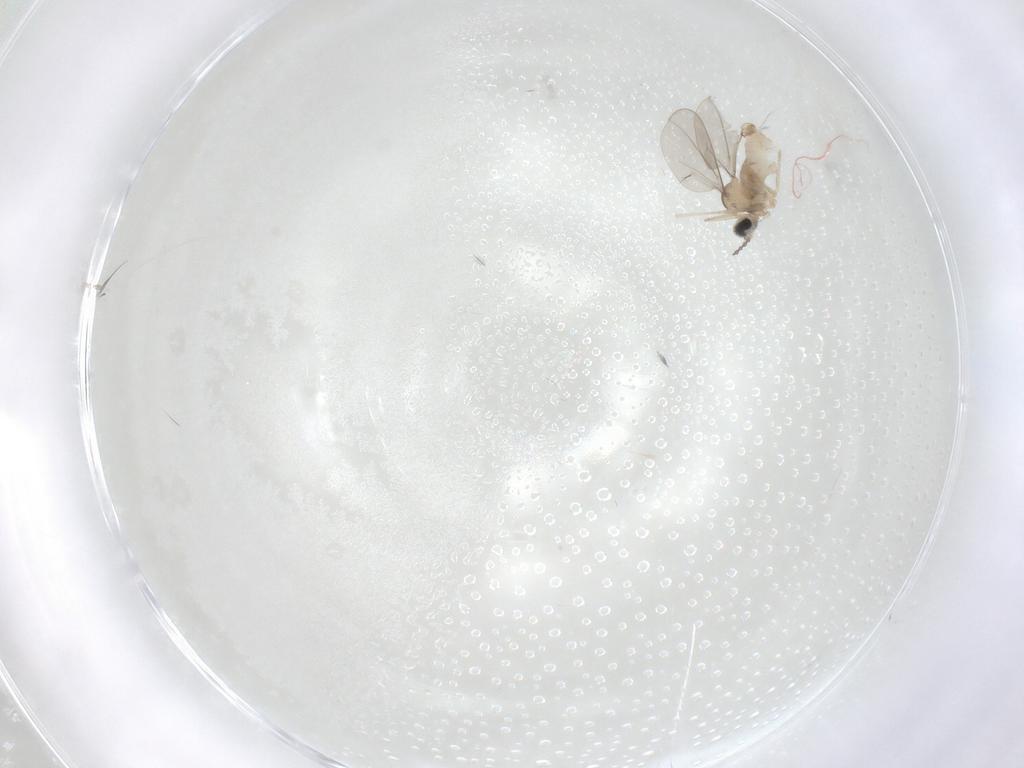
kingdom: Animalia
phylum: Arthropoda
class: Insecta
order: Diptera
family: Cecidomyiidae
